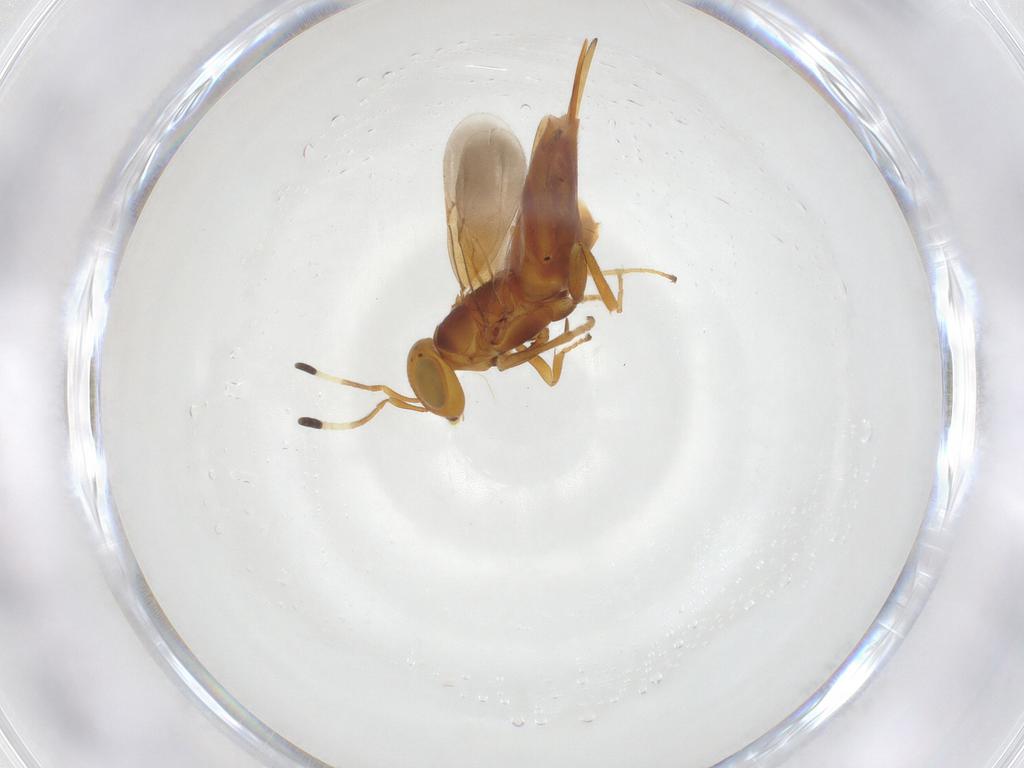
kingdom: Animalia
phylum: Arthropoda
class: Insecta
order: Hymenoptera
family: Encyrtidae
